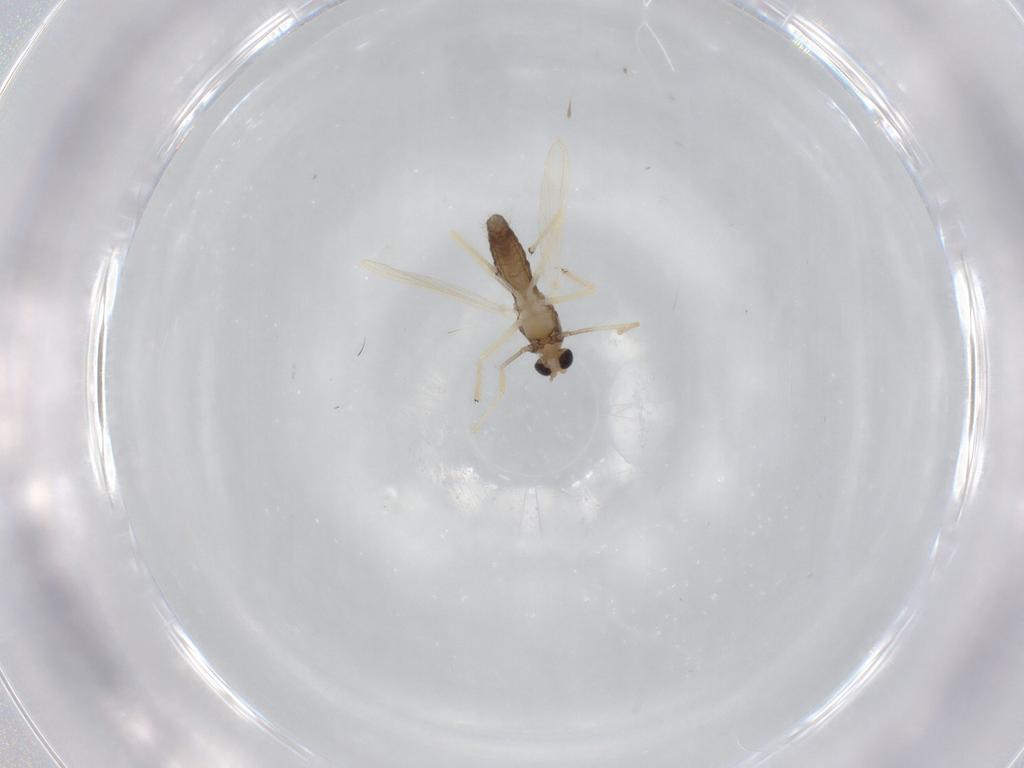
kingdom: Animalia
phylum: Arthropoda
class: Insecta
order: Diptera
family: Chironomidae
